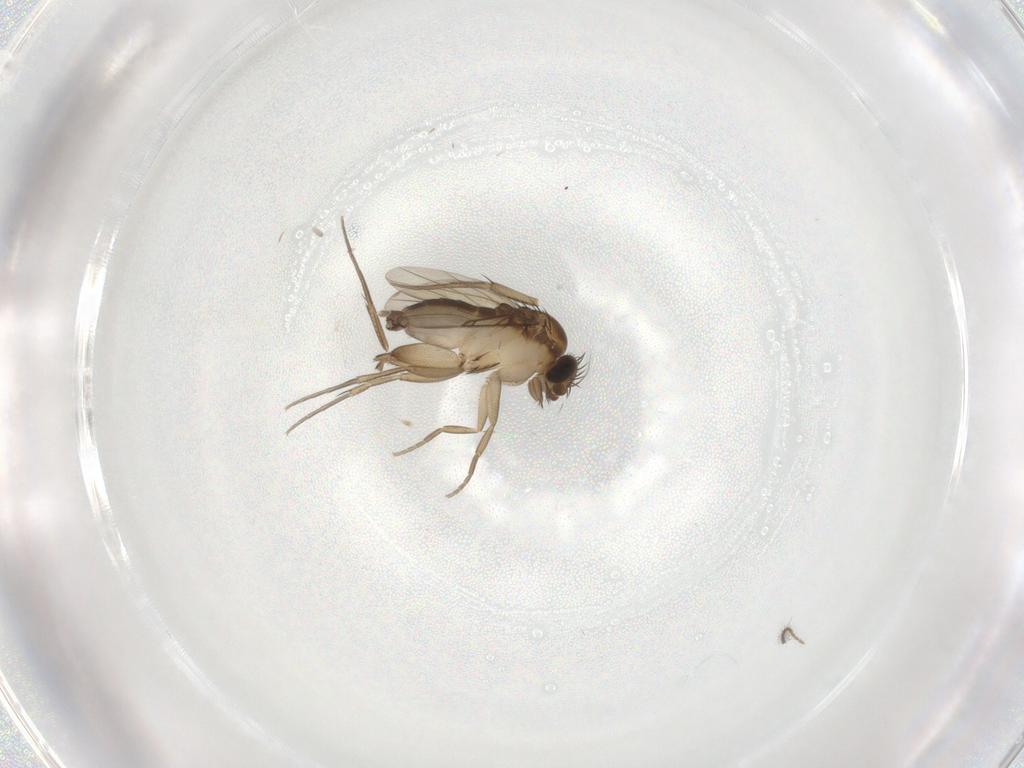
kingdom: Animalia
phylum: Arthropoda
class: Insecta
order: Diptera
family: Phoridae
